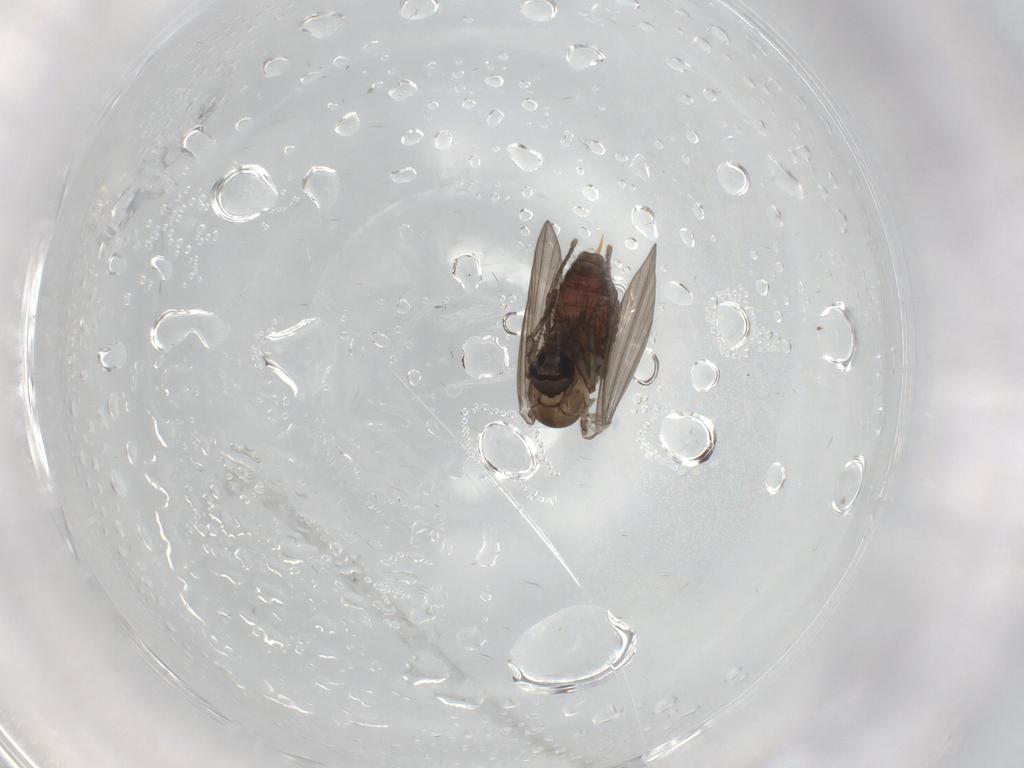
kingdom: Animalia
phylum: Arthropoda
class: Insecta
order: Diptera
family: Psychodidae
